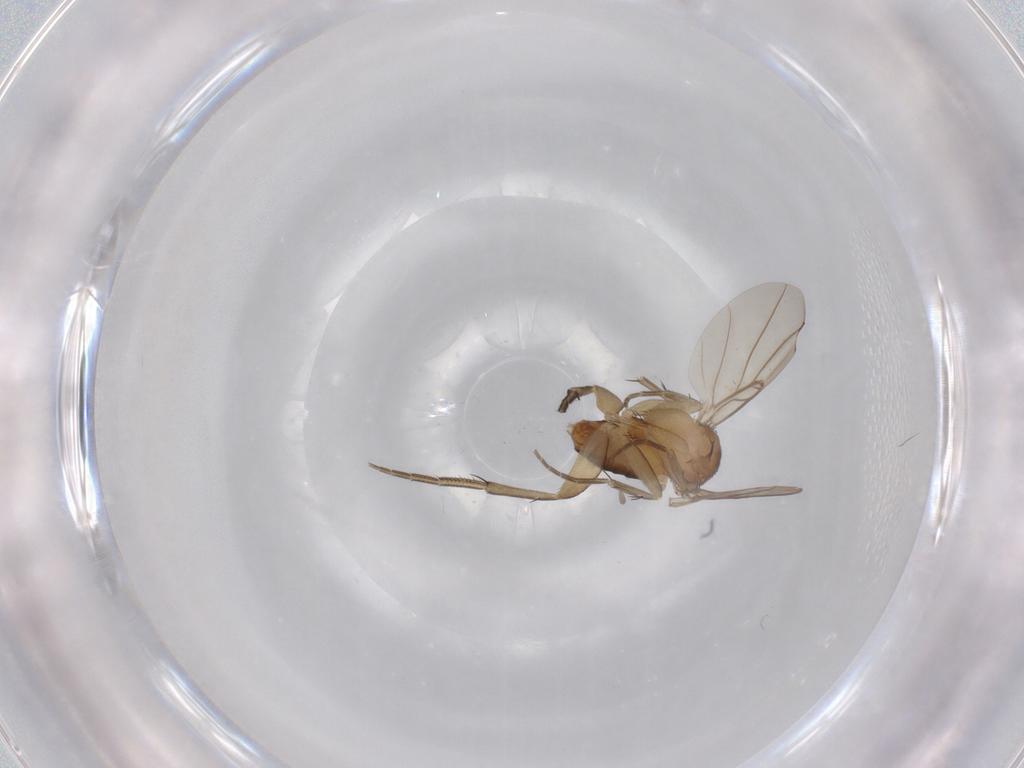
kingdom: Animalia
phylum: Arthropoda
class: Insecta
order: Diptera
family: Phoridae
